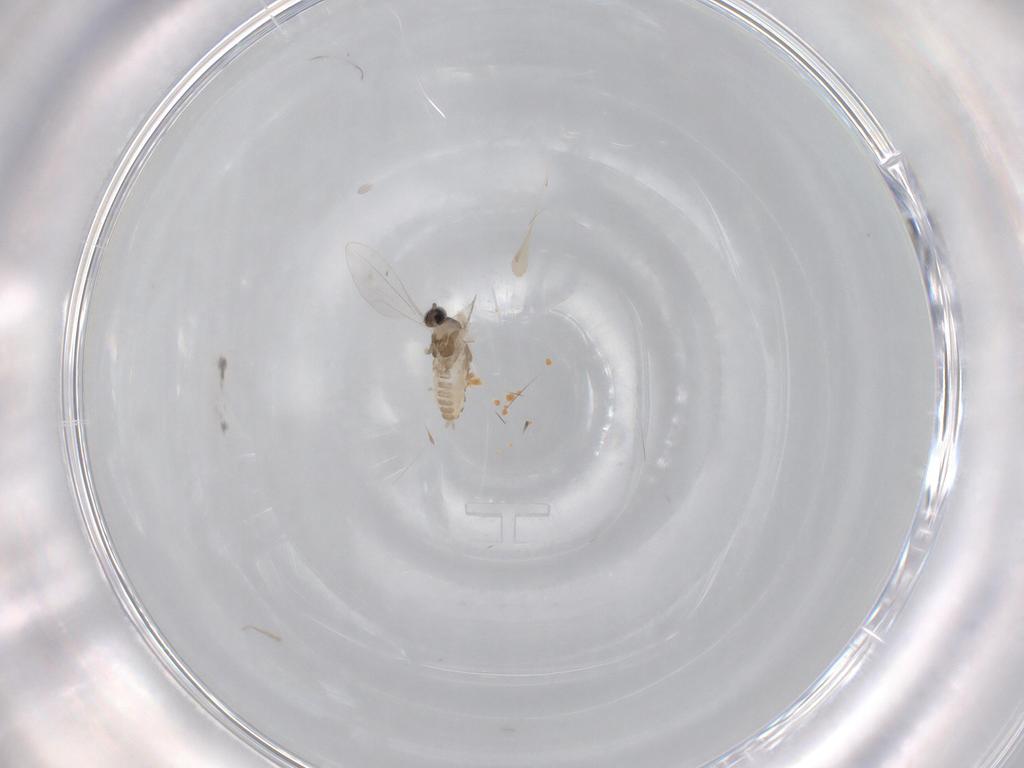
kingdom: Animalia
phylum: Arthropoda
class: Insecta
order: Diptera
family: Cecidomyiidae
